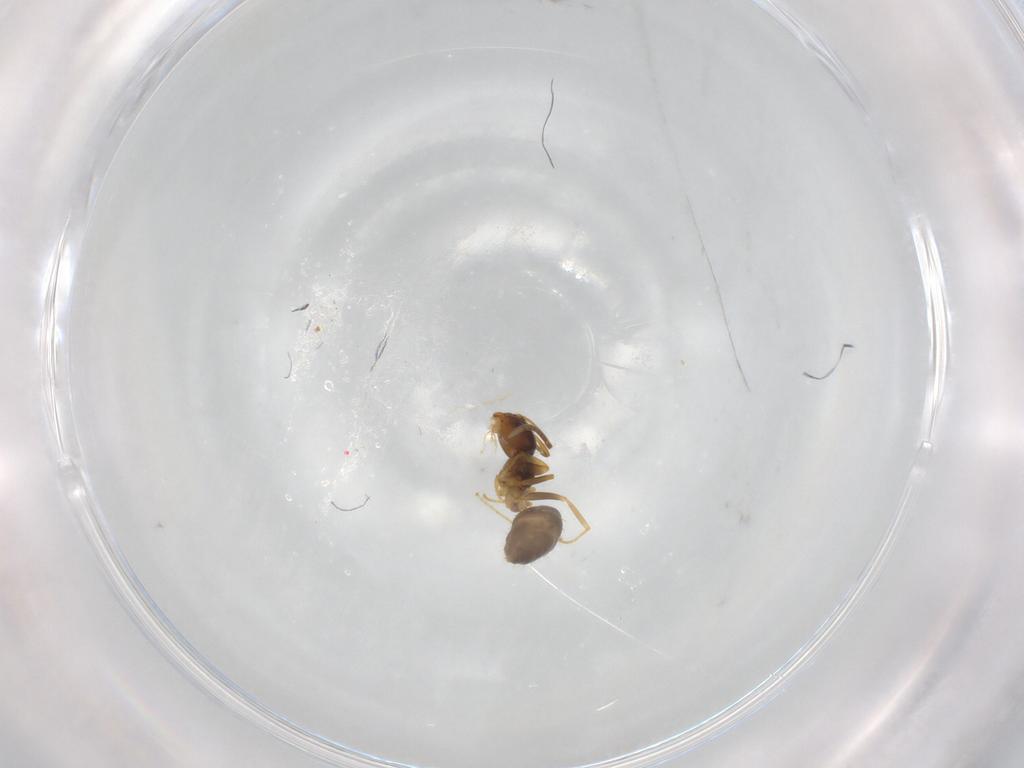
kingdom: Animalia
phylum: Arthropoda
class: Insecta
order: Hymenoptera
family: Formicidae
